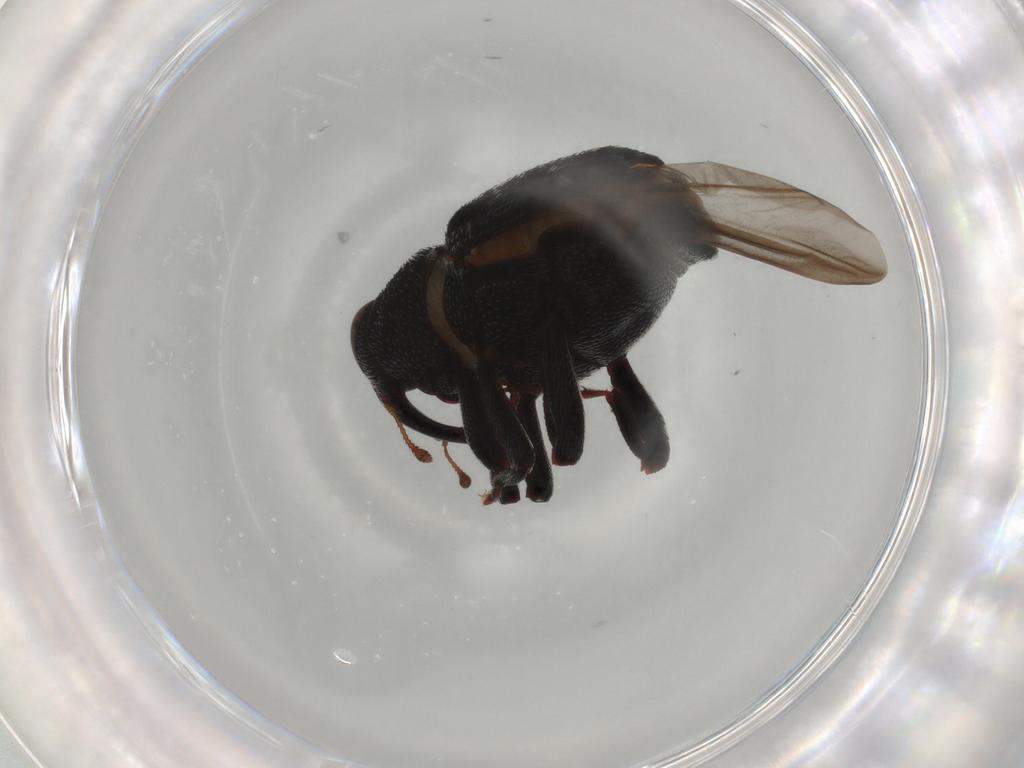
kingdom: Animalia
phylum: Arthropoda
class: Insecta
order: Coleoptera
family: Curculionidae
